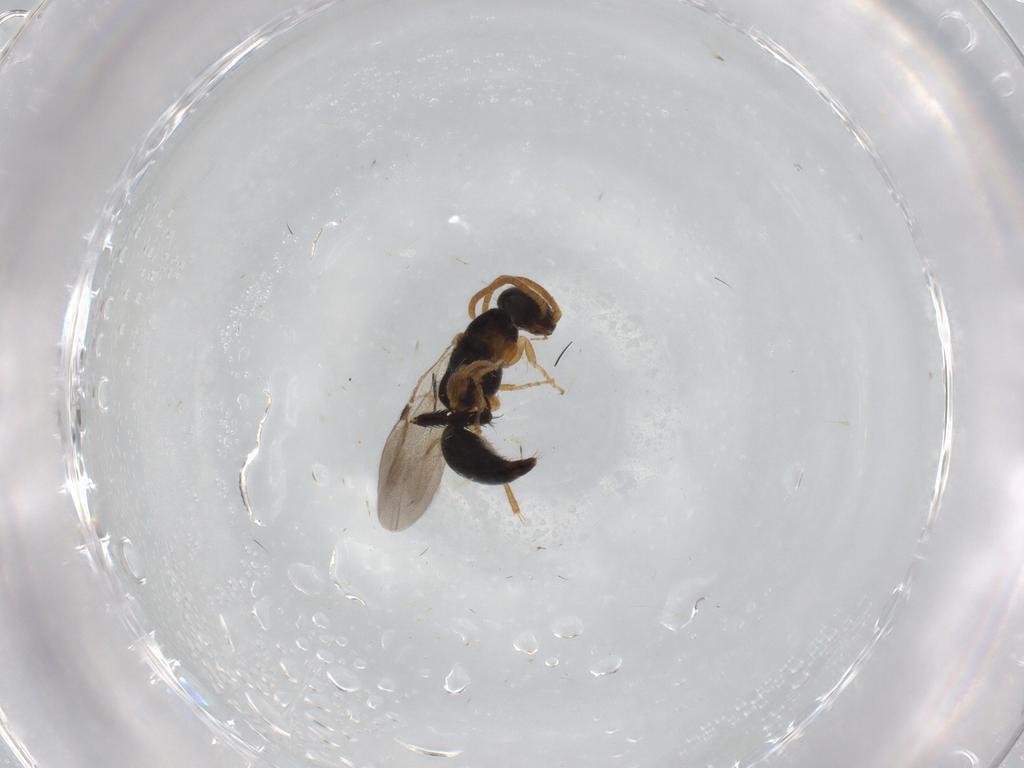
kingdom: Animalia
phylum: Arthropoda
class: Insecta
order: Hymenoptera
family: Bethylidae
